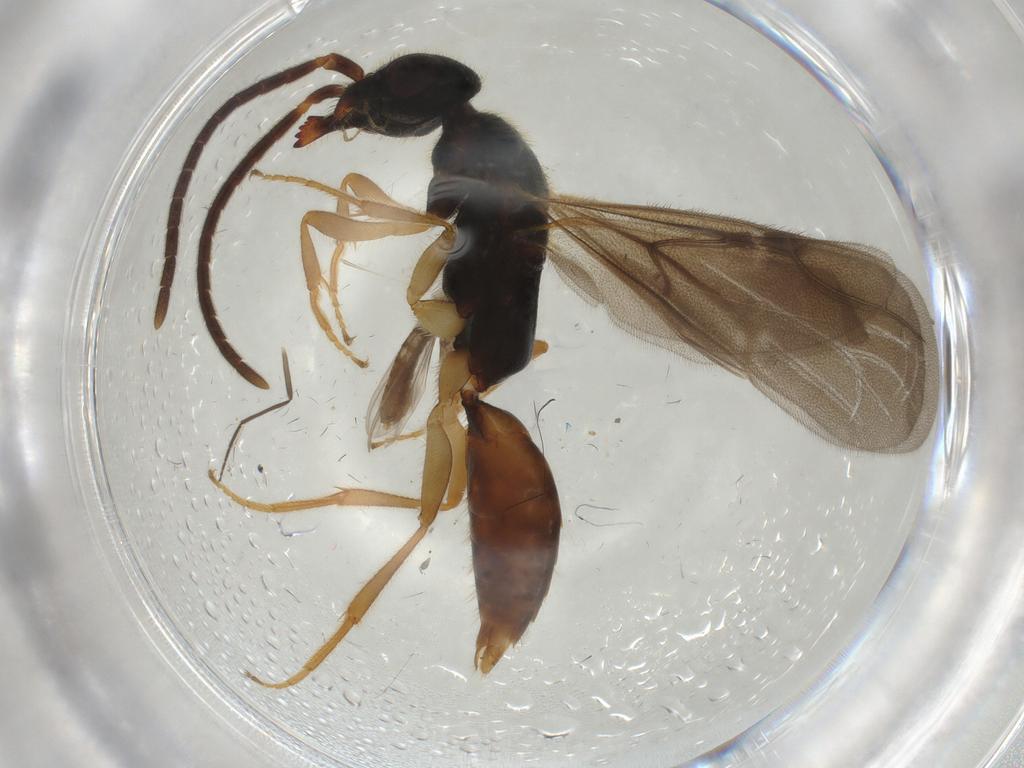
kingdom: Animalia
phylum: Arthropoda
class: Insecta
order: Hymenoptera
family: Bethylidae
